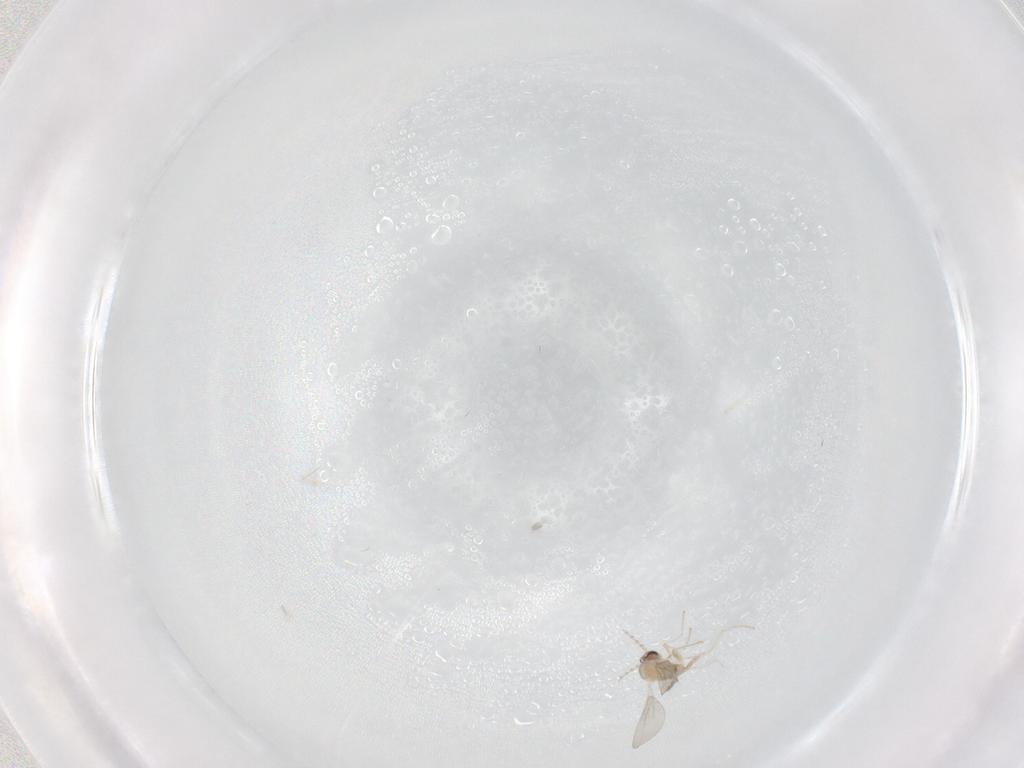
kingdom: Animalia
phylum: Arthropoda
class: Insecta
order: Diptera
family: Cecidomyiidae
